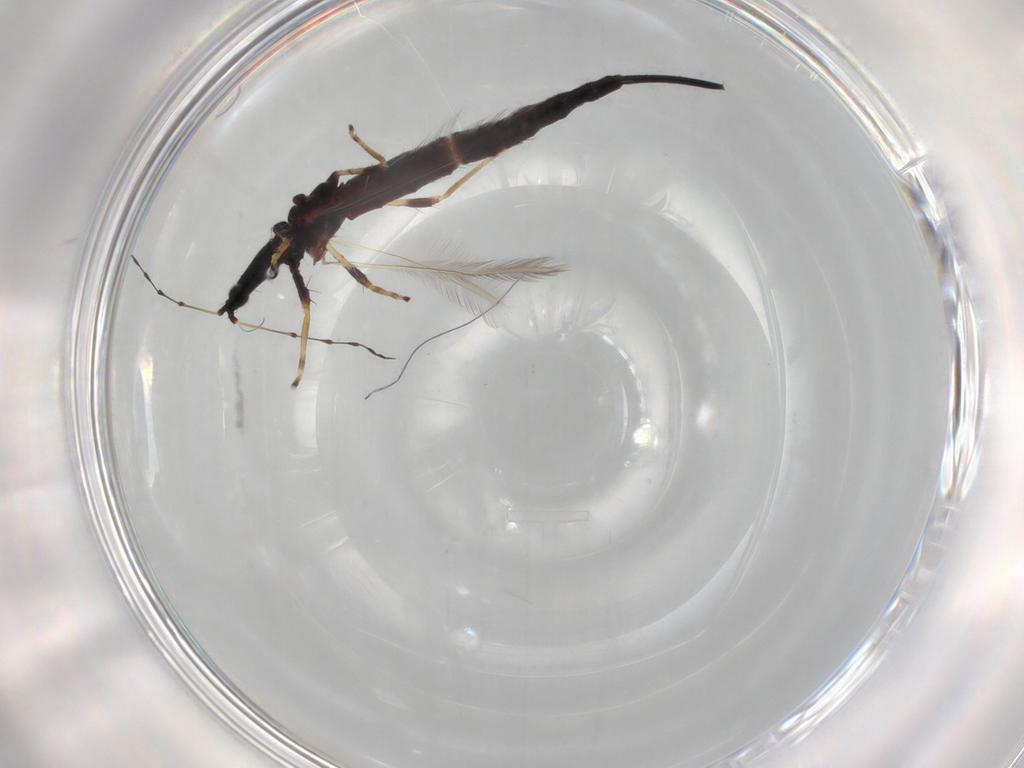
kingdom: Animalia
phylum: Arthropoda
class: Insecta
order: Thysanoptera
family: Phlaeothripidae
